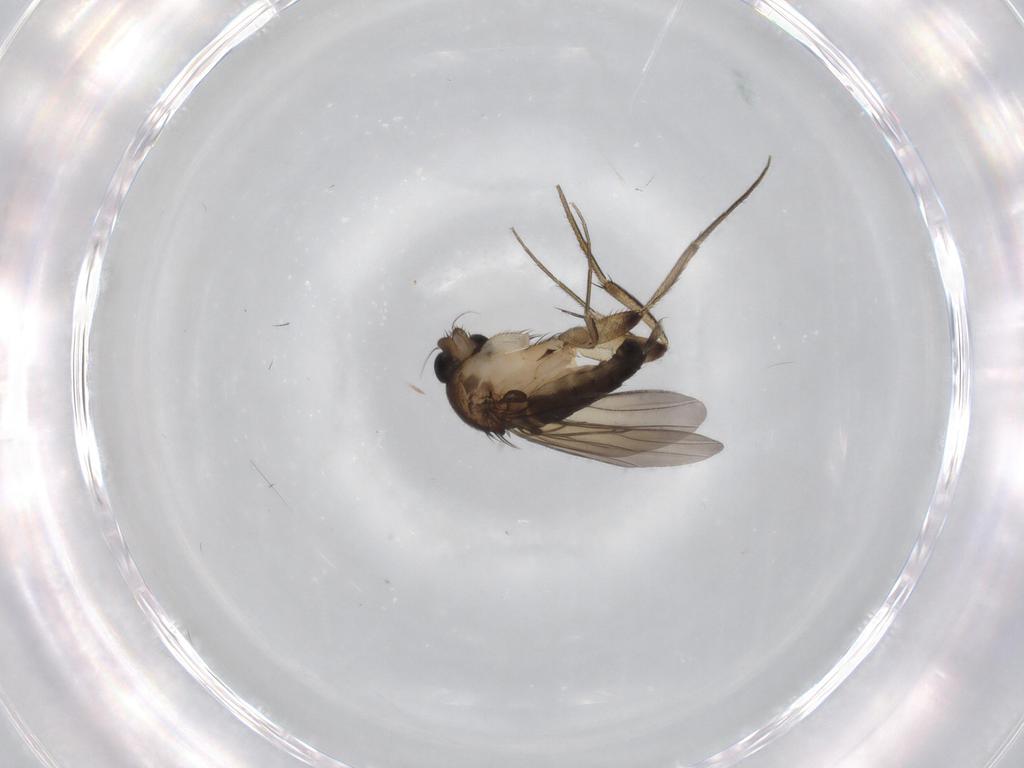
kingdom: Animalia
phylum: Arthropoda
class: Insecta
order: Diptera
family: Phoridae
